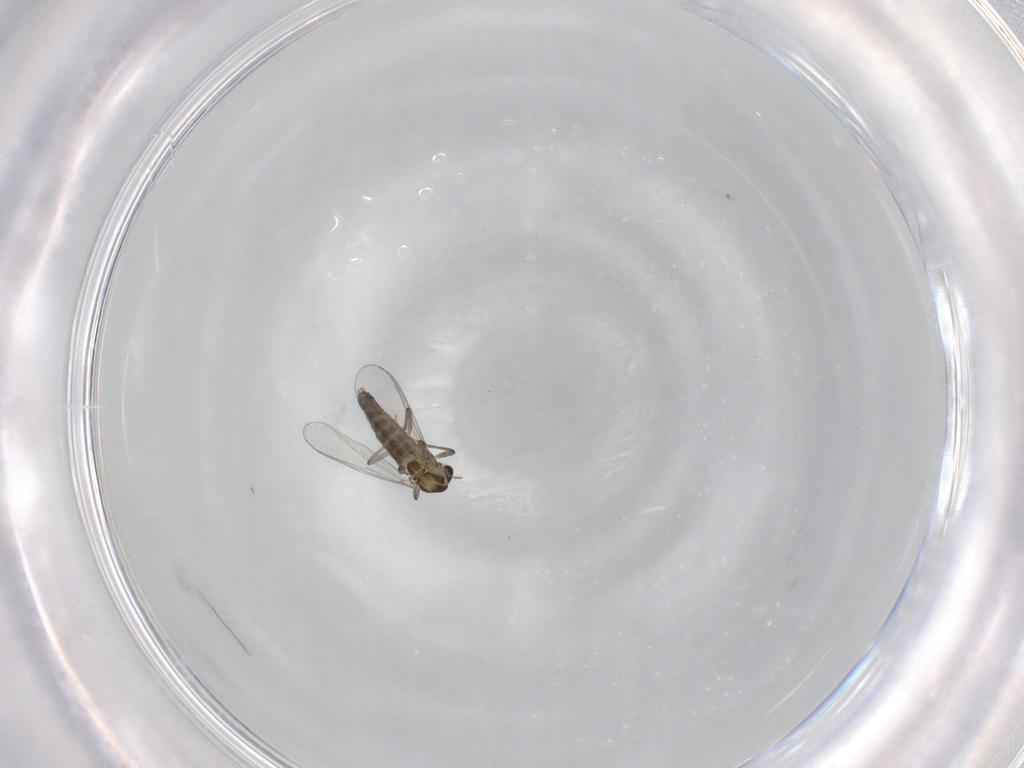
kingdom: Animalia
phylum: Arthropoda
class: Insecta
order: Diptera
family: Chironomidae
